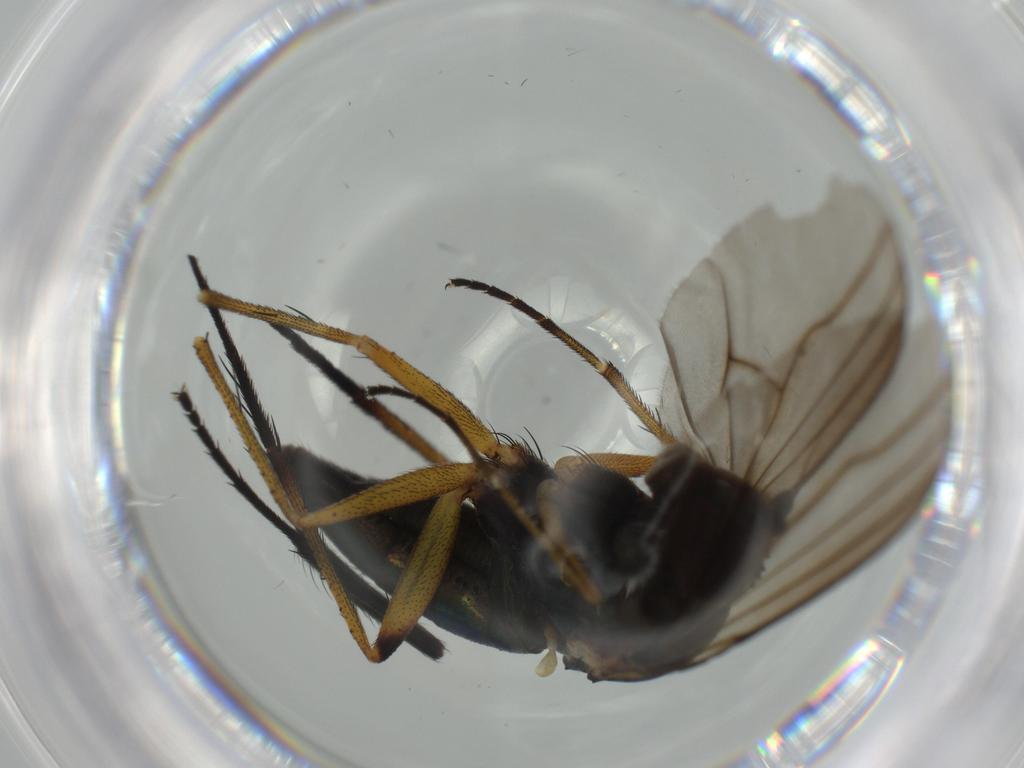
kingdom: Animalia
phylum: Arthropoda
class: Insecta
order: Diptera
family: Dolichopodidae
